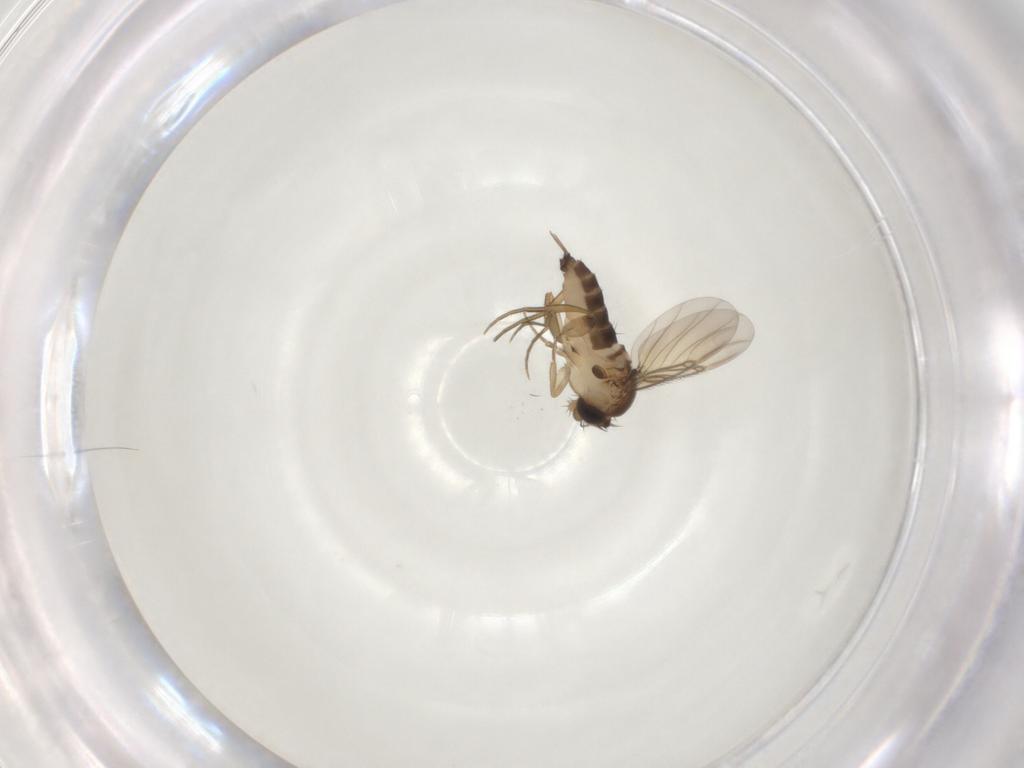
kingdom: Animalia
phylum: Arthropoda
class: Insecta
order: Diptera
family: Phoridae
